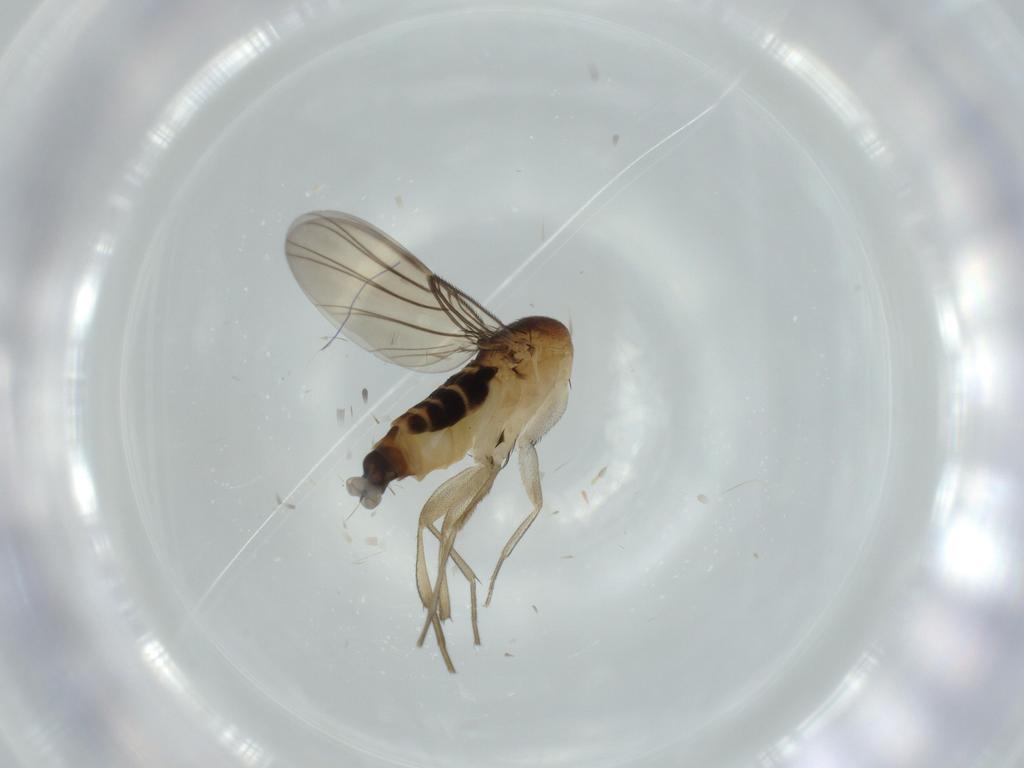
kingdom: Animalia
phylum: Arthropoda
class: Insecta
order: Diptera
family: Phoridae
